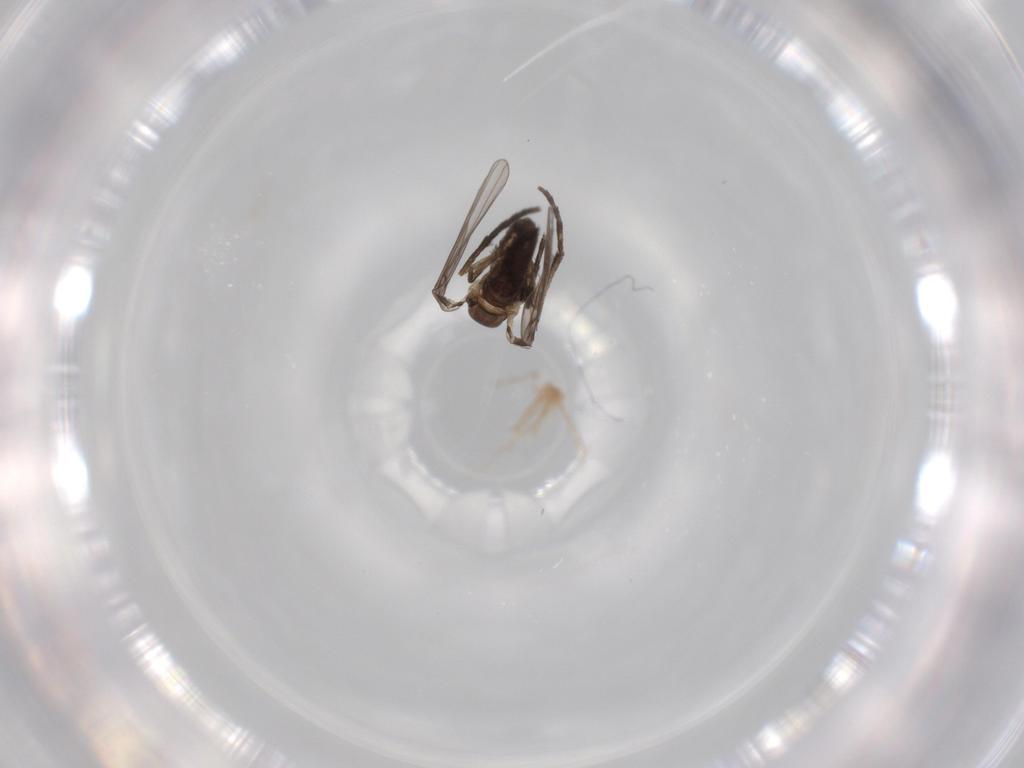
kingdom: Animalia
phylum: Arthropoda
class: Insecta
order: Diptera
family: Psychodidae
